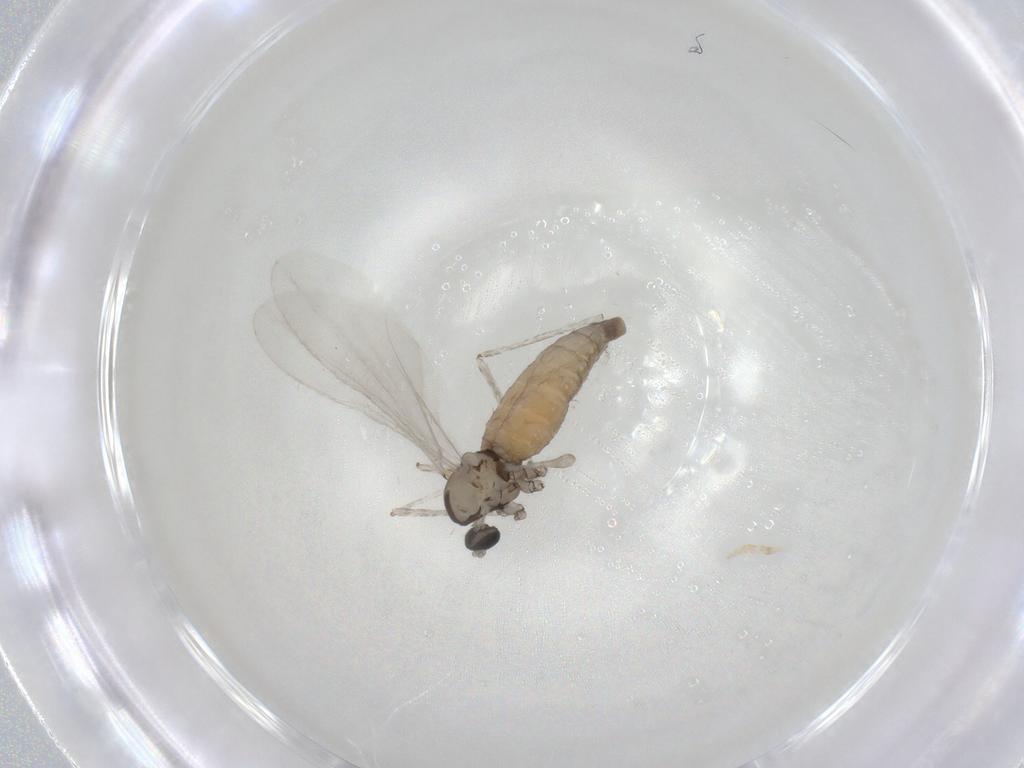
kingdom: Animalia
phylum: Arthropoda
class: Insecta
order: Diptera
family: Cecidomyiidae
